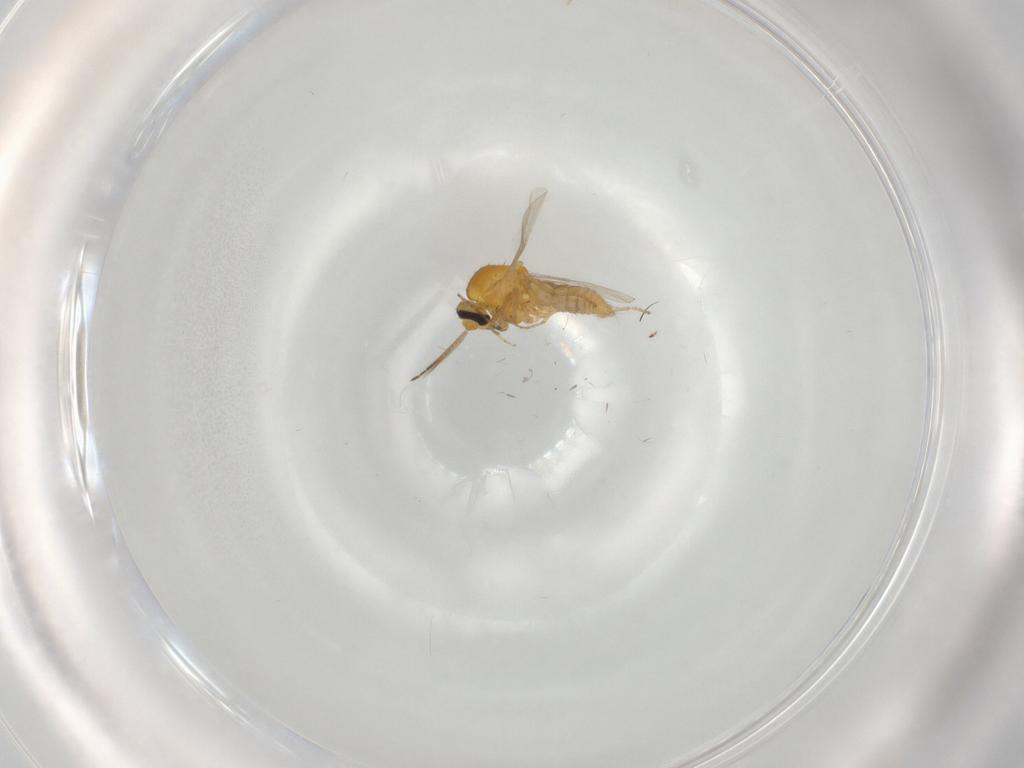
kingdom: Animalia
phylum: Arthropoda
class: Insecta
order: Diptera
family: Ceratopogonidae
